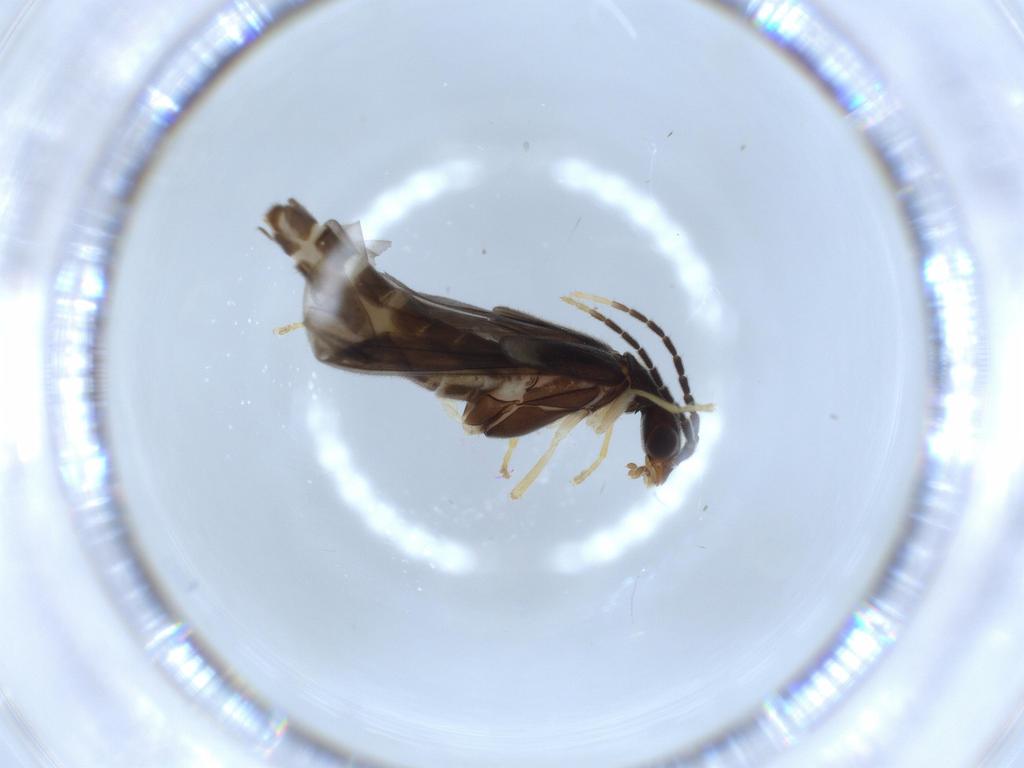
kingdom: Animalia
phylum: Arthropoda
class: Insecta
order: Coleoptera
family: Cantharidae
